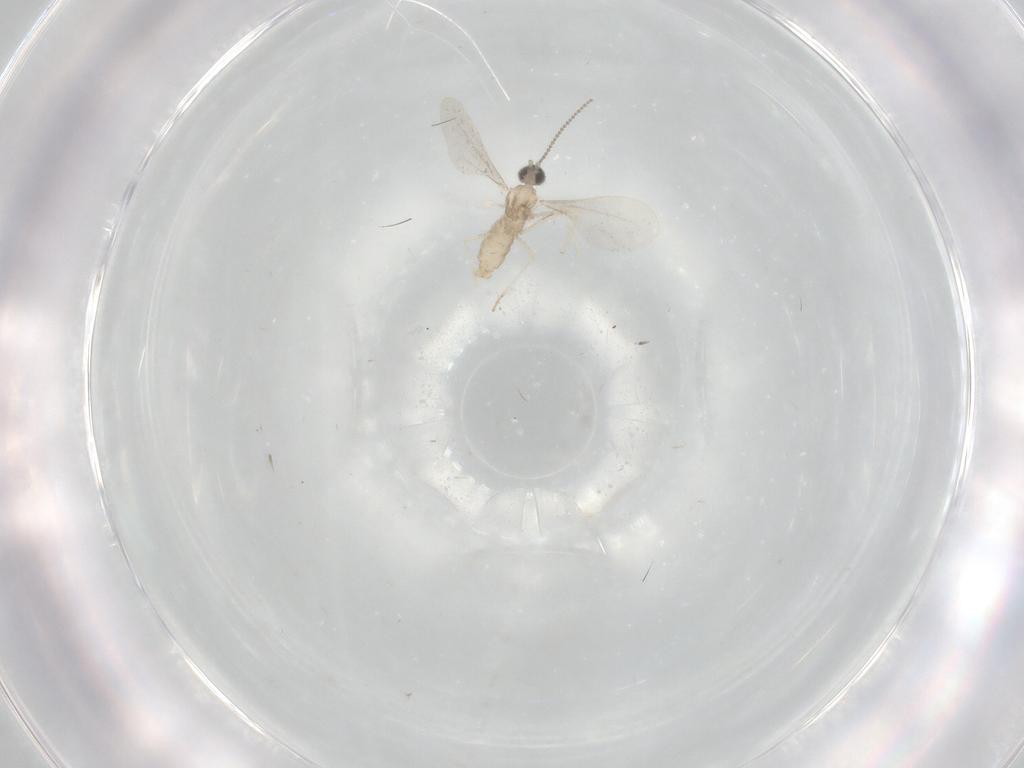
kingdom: Animalia
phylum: Arthropoda
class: Insecta
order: Diptera
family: Cecidomyiidae
